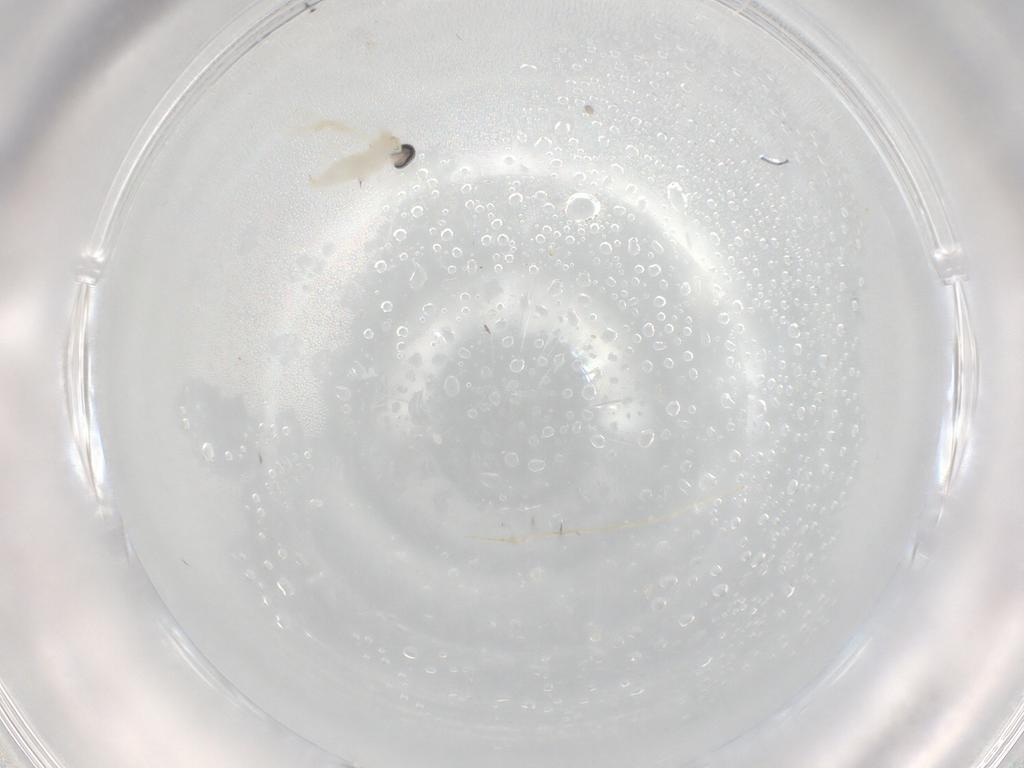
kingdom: Animalia
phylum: Arthropoda
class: Insecta
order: Diptera
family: Psychodidae
